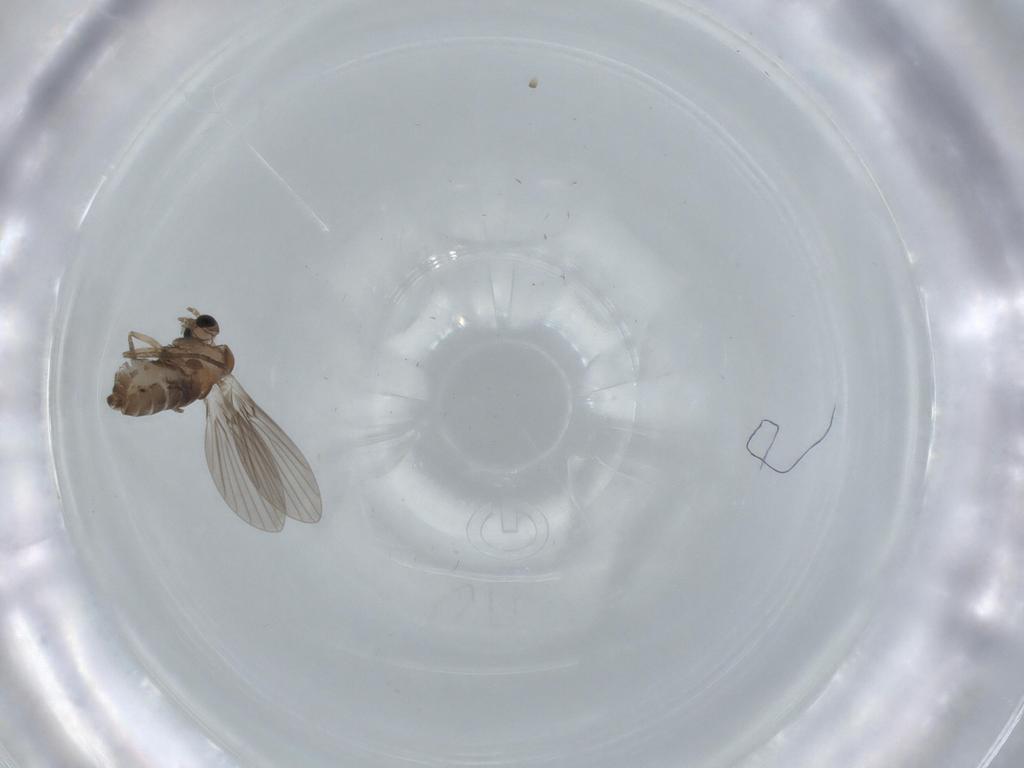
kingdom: Animalia
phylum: Arthropoda
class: Insecta
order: Diptera
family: Psychodidae
